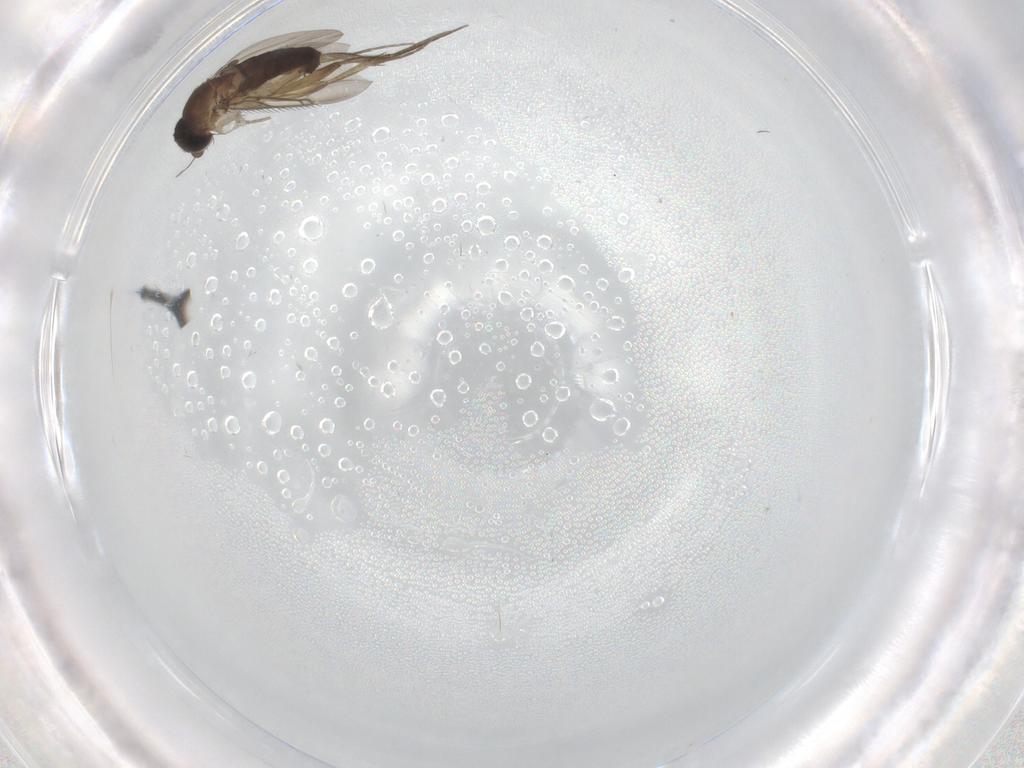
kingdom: Animalia
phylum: Arthropoda
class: Insecta
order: Diptera
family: Phoridae
